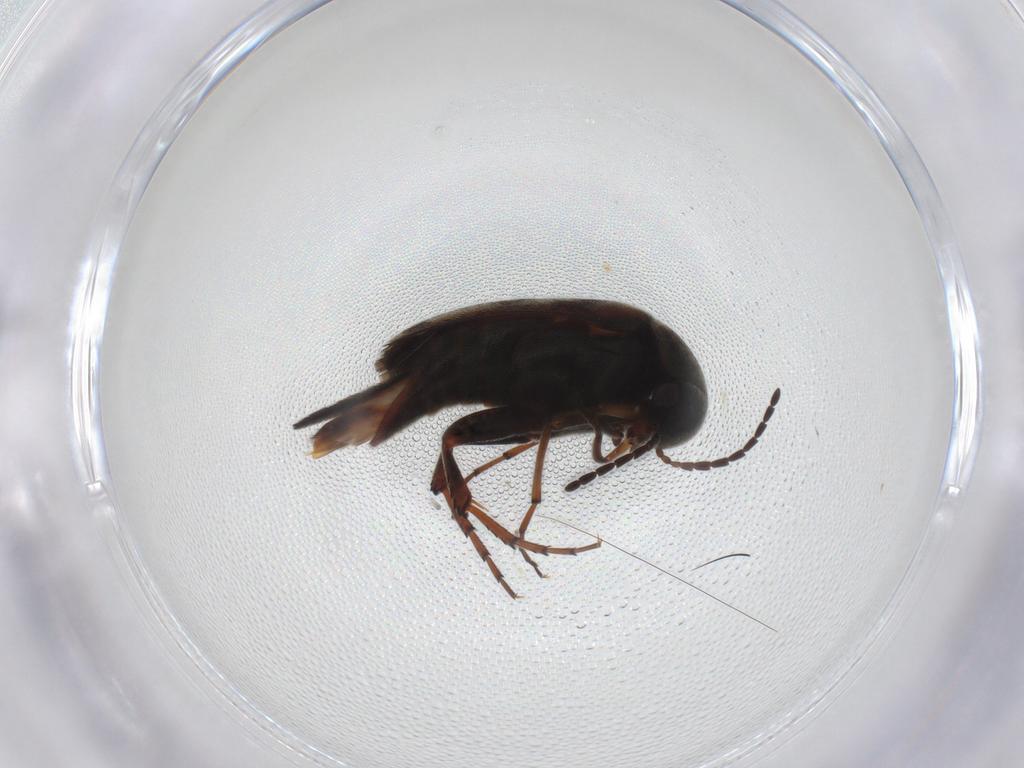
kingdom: Animalia
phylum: Arthropoda
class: Insecta
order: Coleoptera
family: Mordellidae
